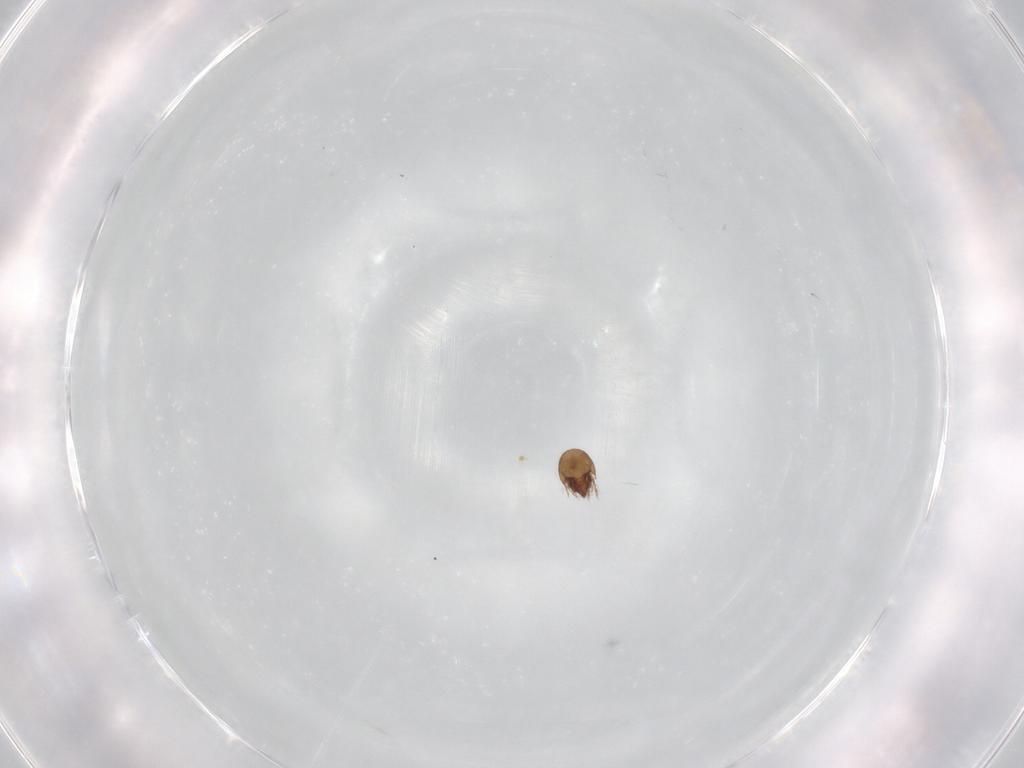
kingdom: Animalia
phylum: Arthropoda
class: Arachnida
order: Sarcoptiformes
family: Ceratozetidae
